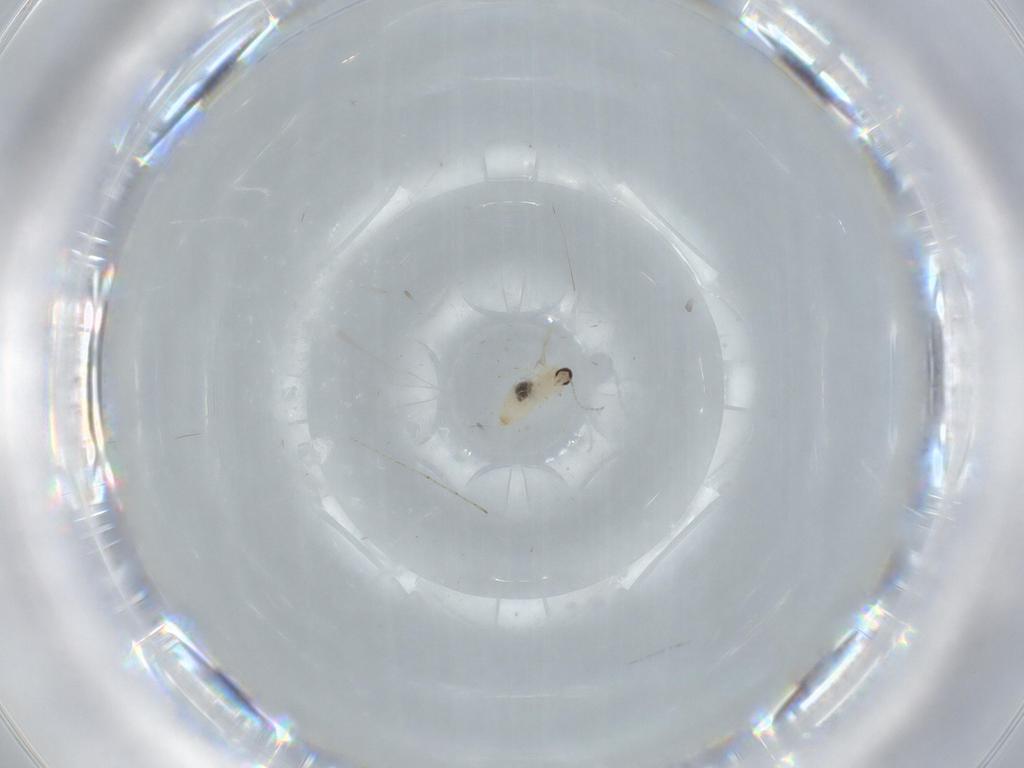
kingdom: Animalia
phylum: Arthropoda
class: Insecta
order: Diptera
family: Cecidomyiidae
